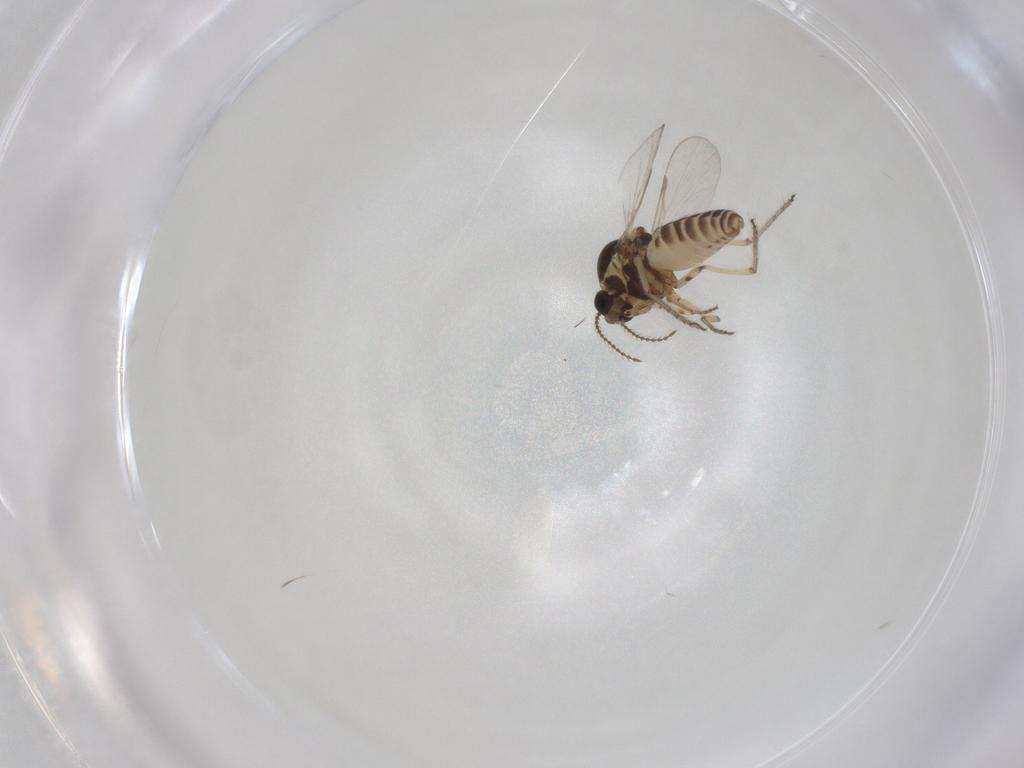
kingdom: Animalia
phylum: Arthropoda
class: Insecta
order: Diptera
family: Ceratopogonidae
